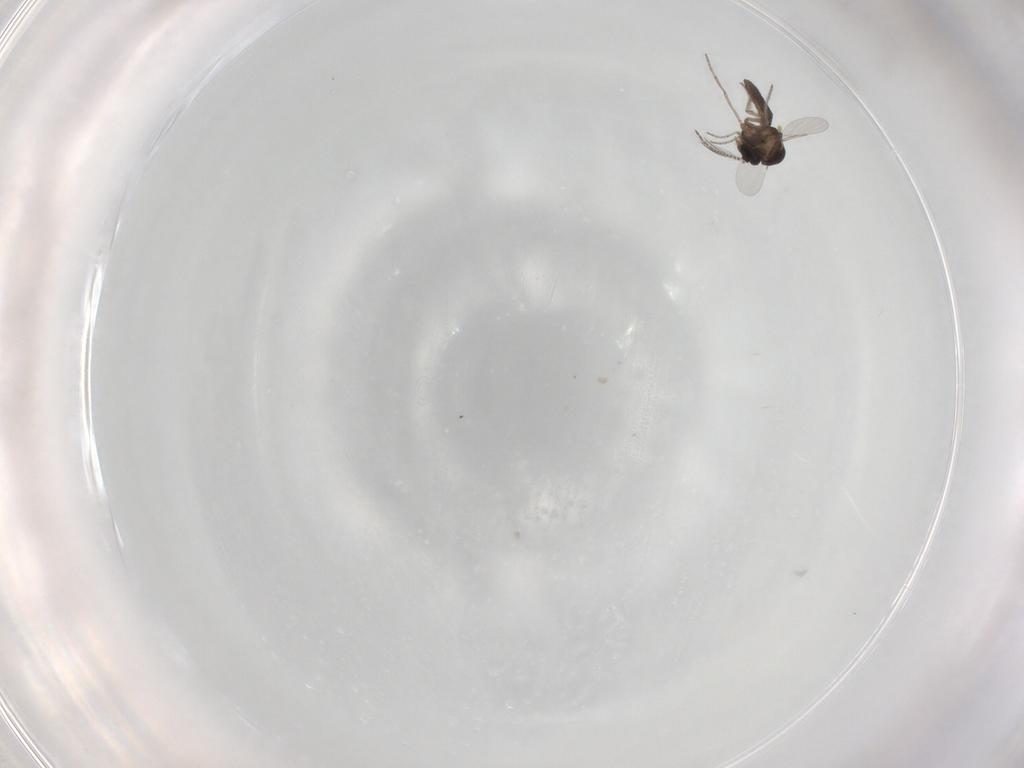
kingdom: Animalia
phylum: Arthropoda
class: Insecta
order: Diptera
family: Ceratopogonidae
